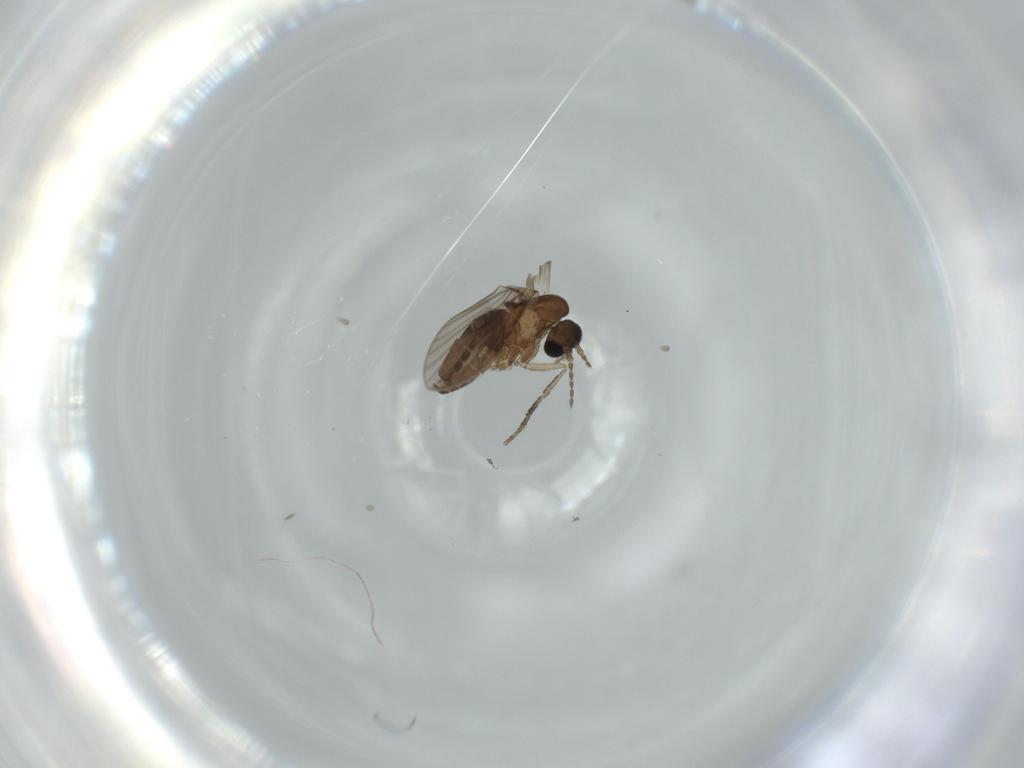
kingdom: Animalia
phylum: Arthropoda
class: Insecta
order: Diptera
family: Psychodidae
